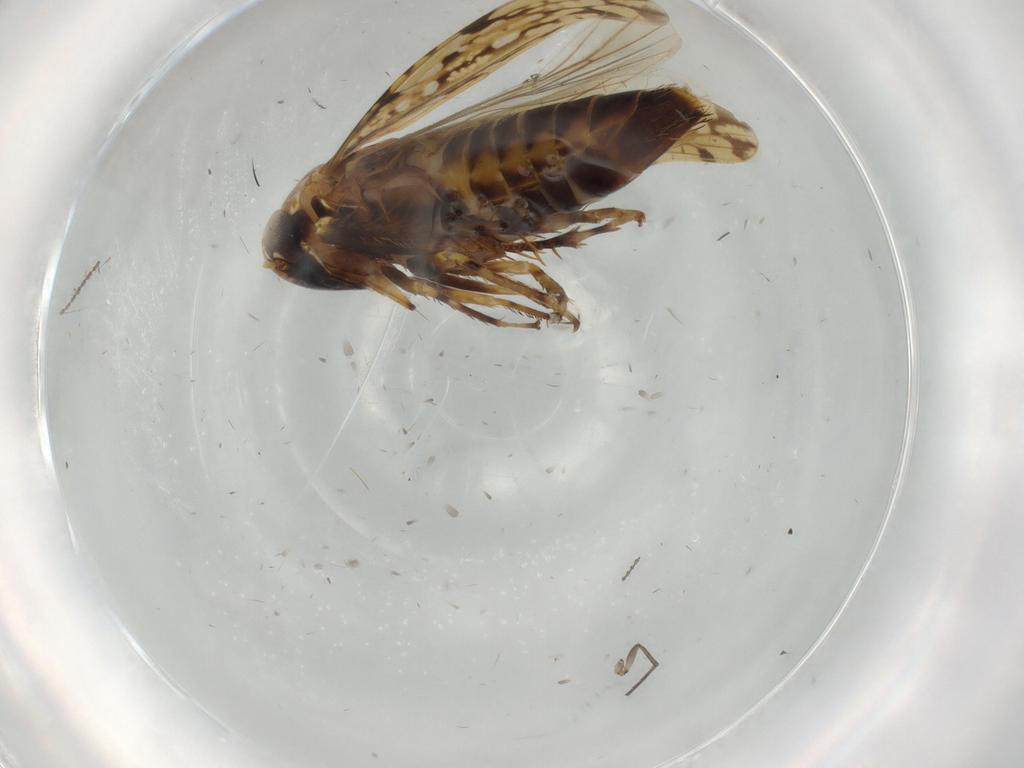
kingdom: Animalia
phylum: Arthropoda
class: Insecta
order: Hemiptera
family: Cicadellidae
